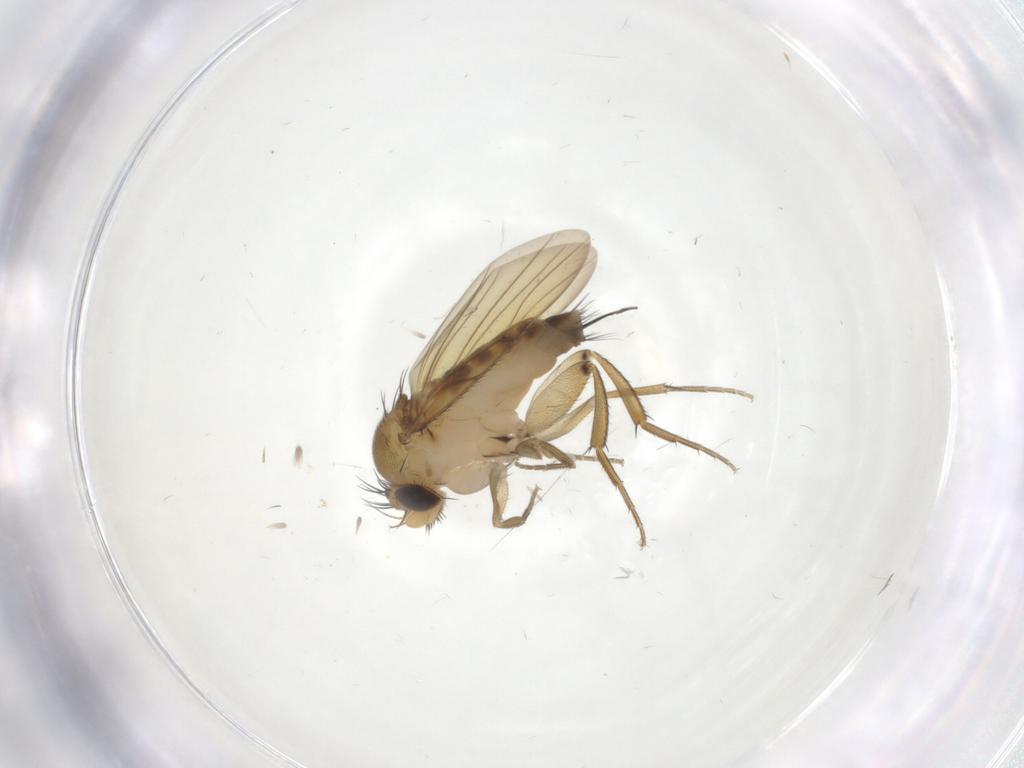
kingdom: Animalia
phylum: Arthropoda
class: Insecta
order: Diptera
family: Phoridae
